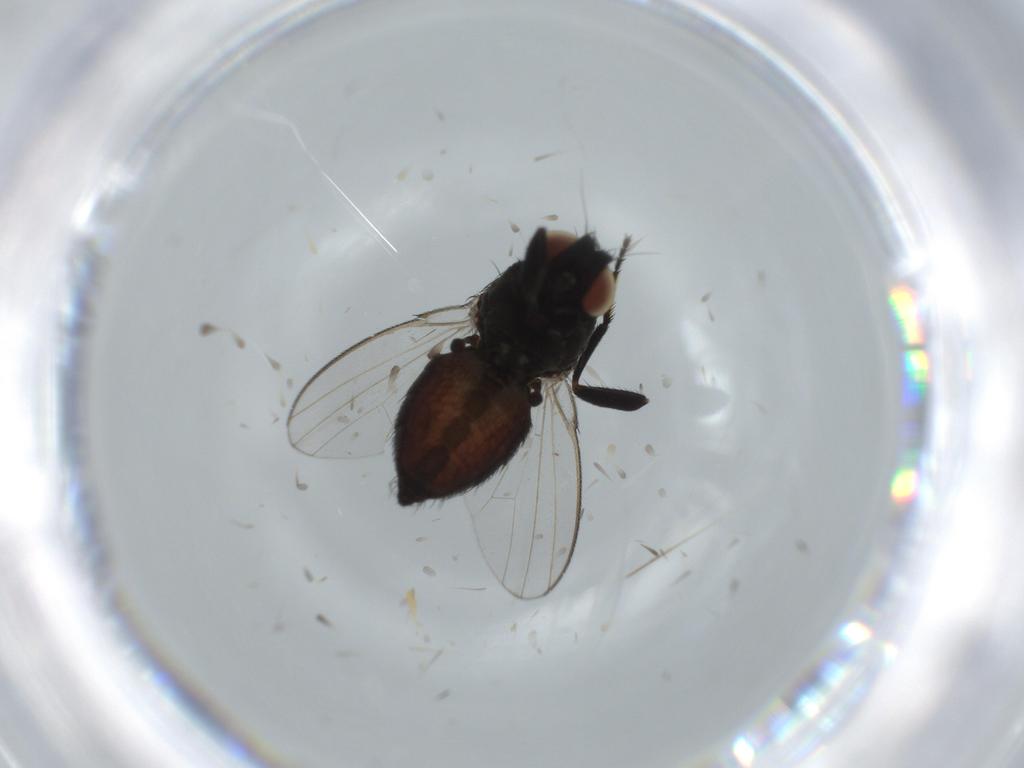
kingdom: Animalia
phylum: Arthropoda
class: Insecta
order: Diptera
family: Milichiidae
